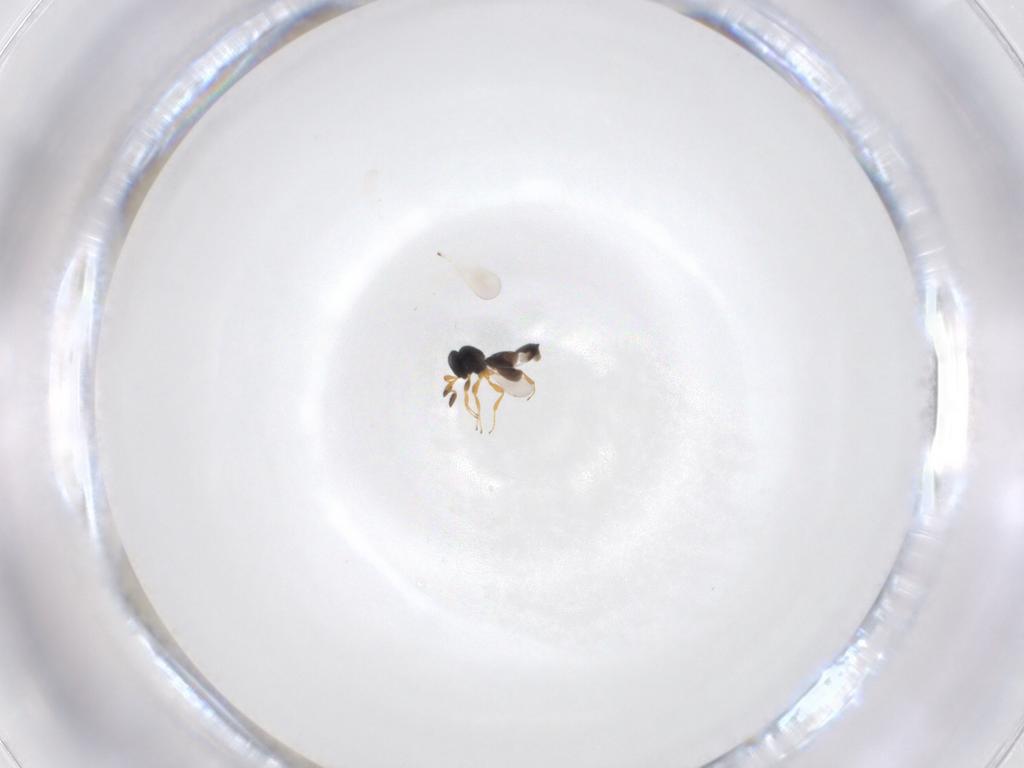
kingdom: Animalia
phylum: Arthropoda
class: Insecta
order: Hymenoptera
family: Platygastridae
